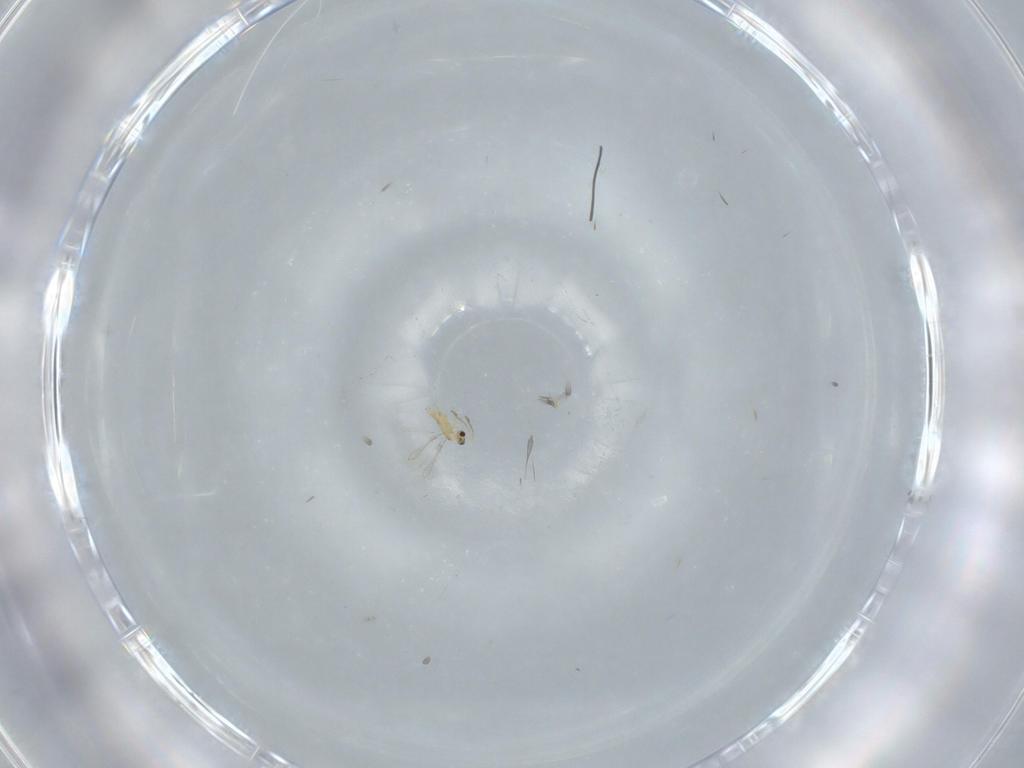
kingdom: Animalia
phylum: Arthropoda
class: Insecta
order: Hymenoptera
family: Mymaridae
